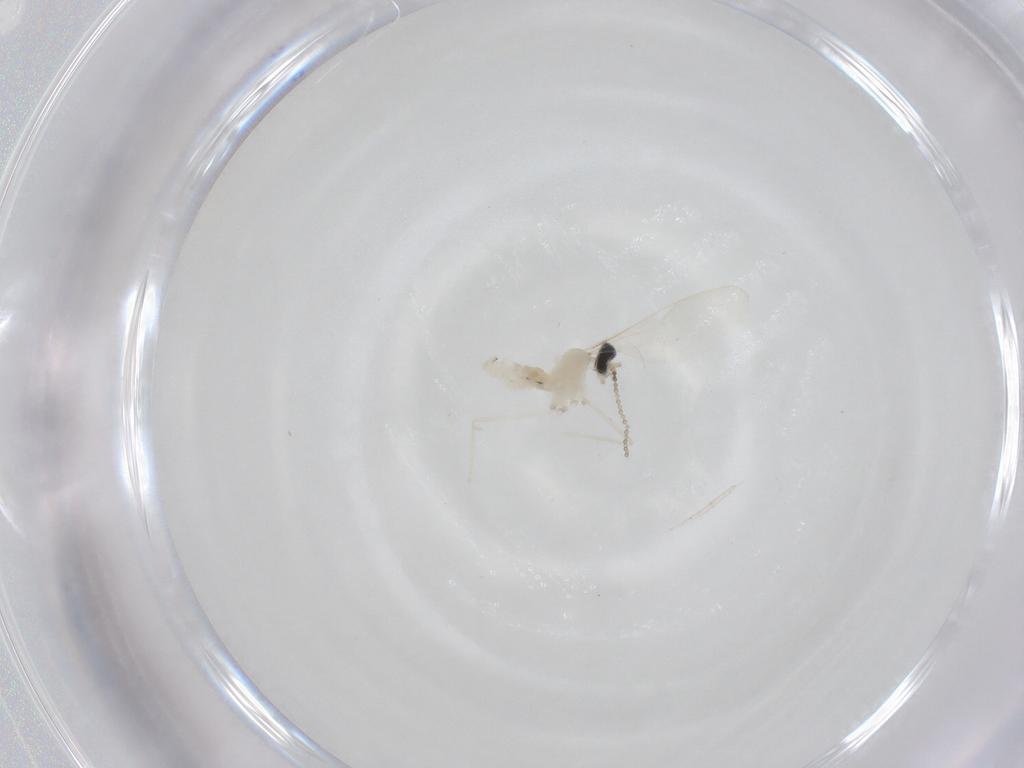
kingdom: Animalia
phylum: Arthropoda
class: Insecta
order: Diptera
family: Cecidomyiidae
